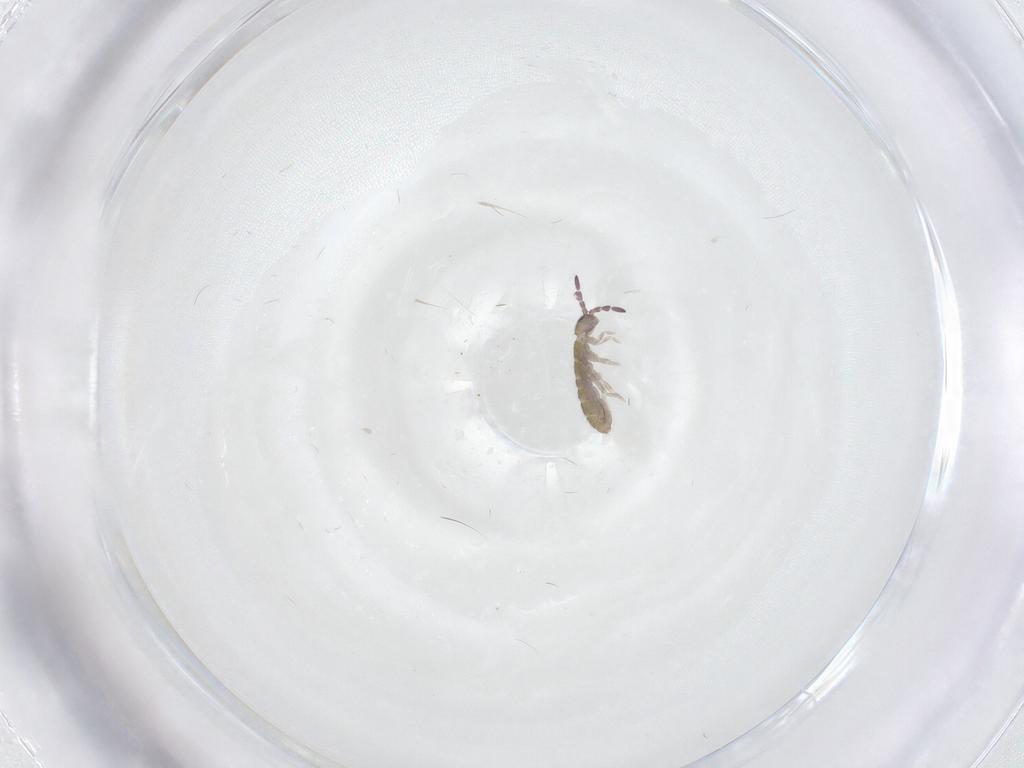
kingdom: Animalia
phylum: Arthropoda
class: Collembola
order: Entomobryomorpha
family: Entomobryidae
